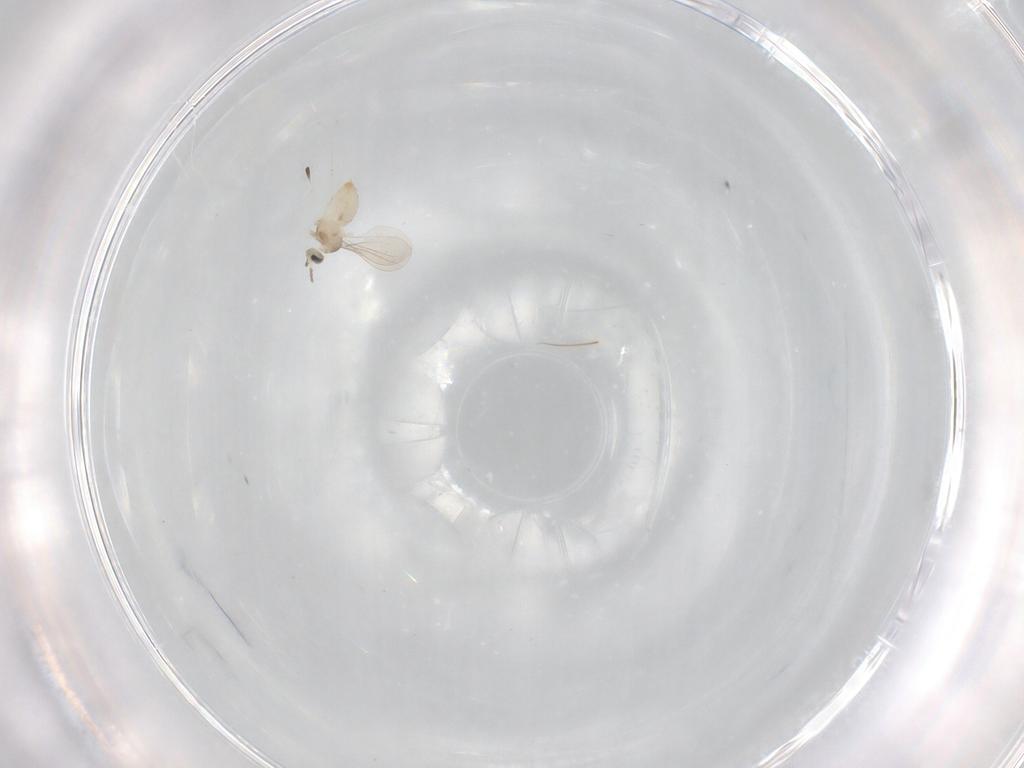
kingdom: Animalia
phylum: Arthropoda
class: Insecta
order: Diptera
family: Cecidomyiidae
